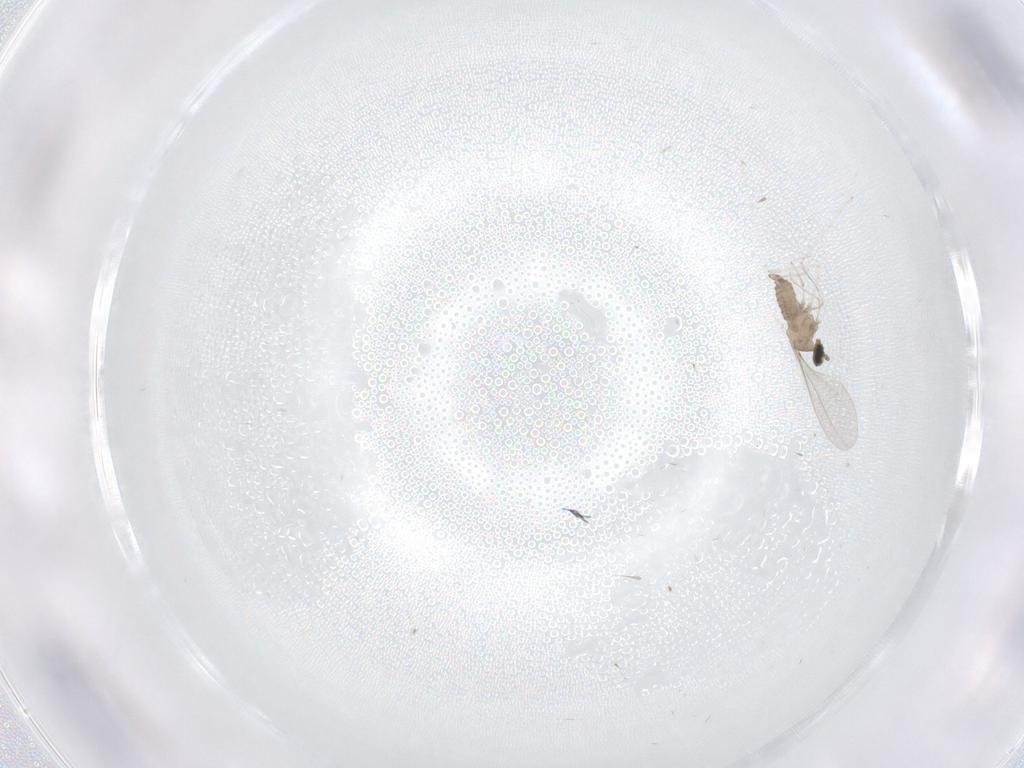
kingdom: Animalia
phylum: Arthropoda
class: Insecta
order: Diptera
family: Cecidomyiidae
